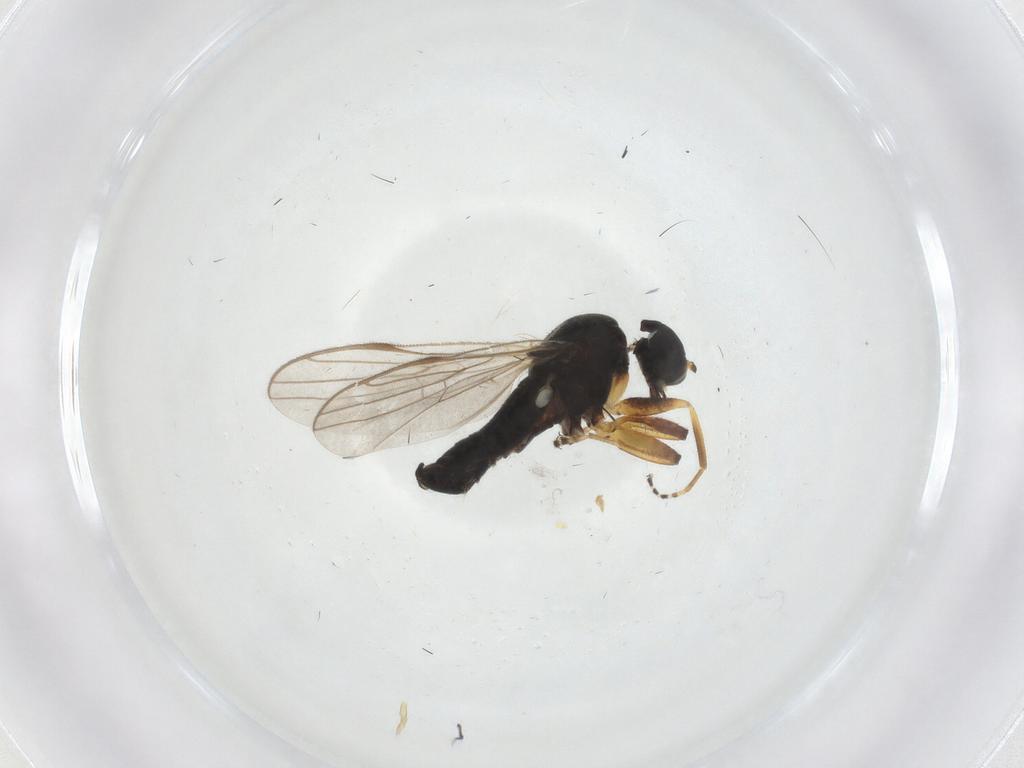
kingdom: Animalia
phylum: Arthropoda
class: Insecta
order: Diptera
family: Hybotidae
